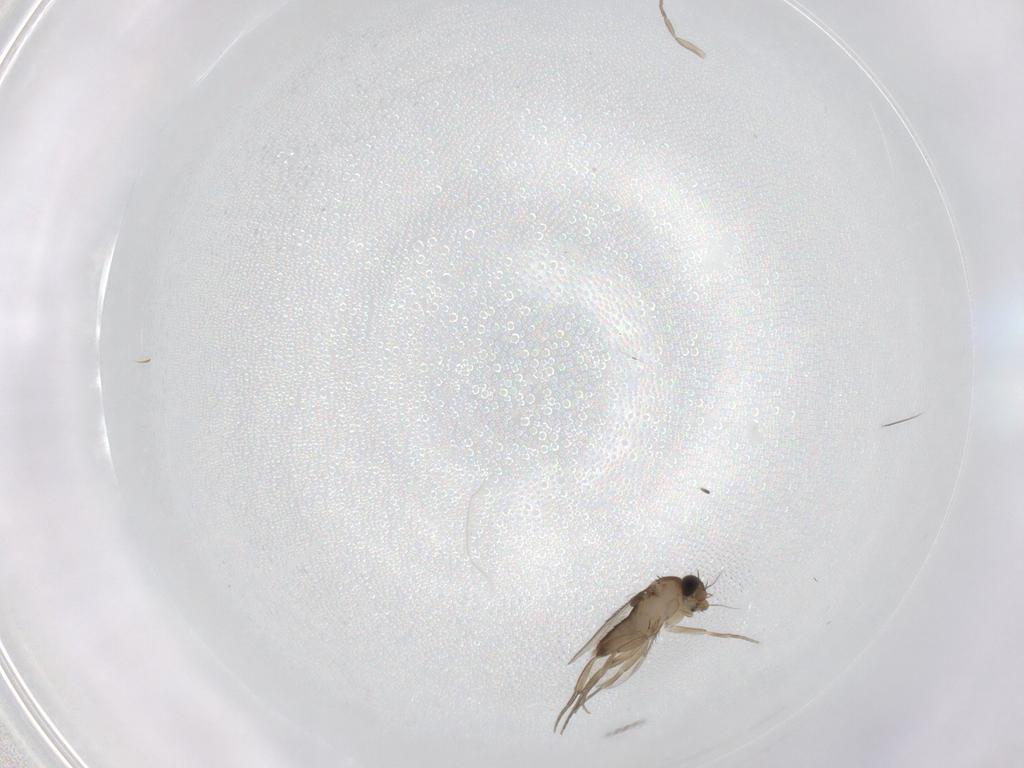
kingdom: Animalia
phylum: Arthropoda
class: Insecta
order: Diptera
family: Phoridae
